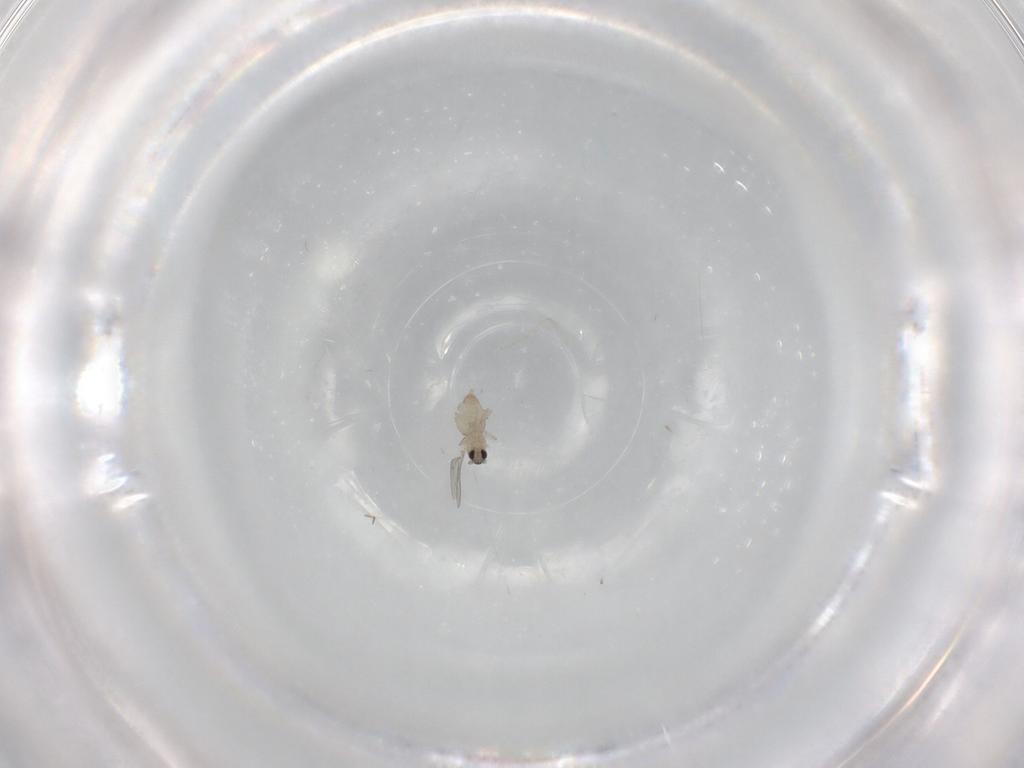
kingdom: Animalia
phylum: Arthropoda
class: Insecta
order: Diptera
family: Cecidomyiidae
